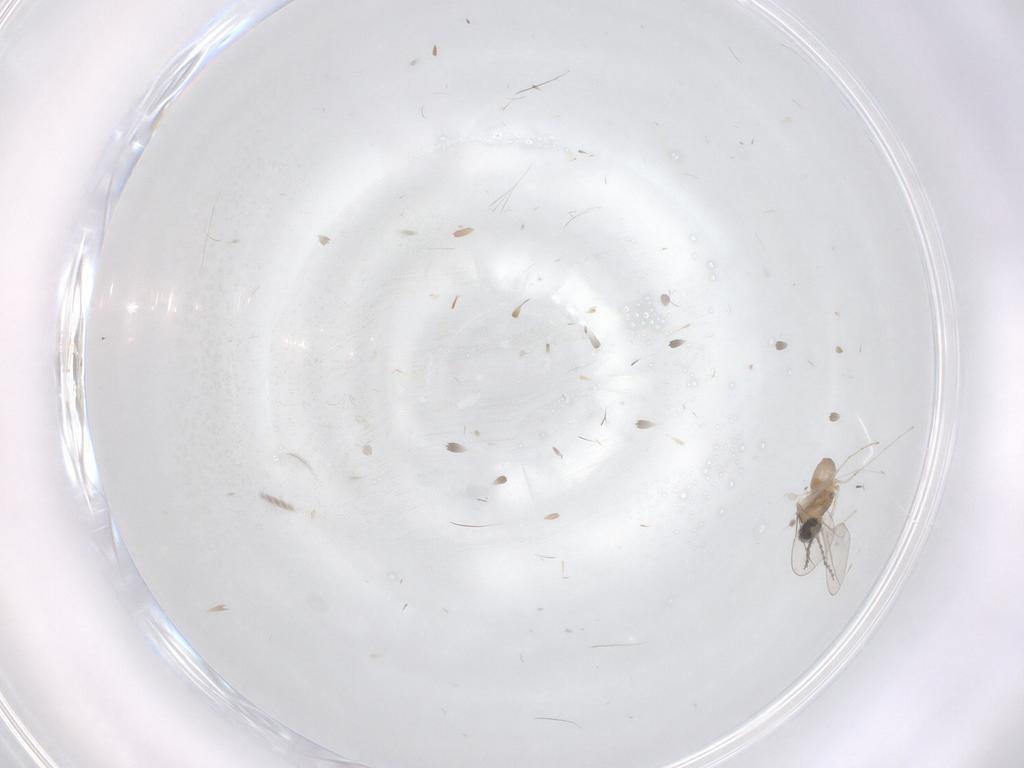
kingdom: Animalia
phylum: Arthropoda
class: Insecta
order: Diptera
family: Cecidomyiidae
